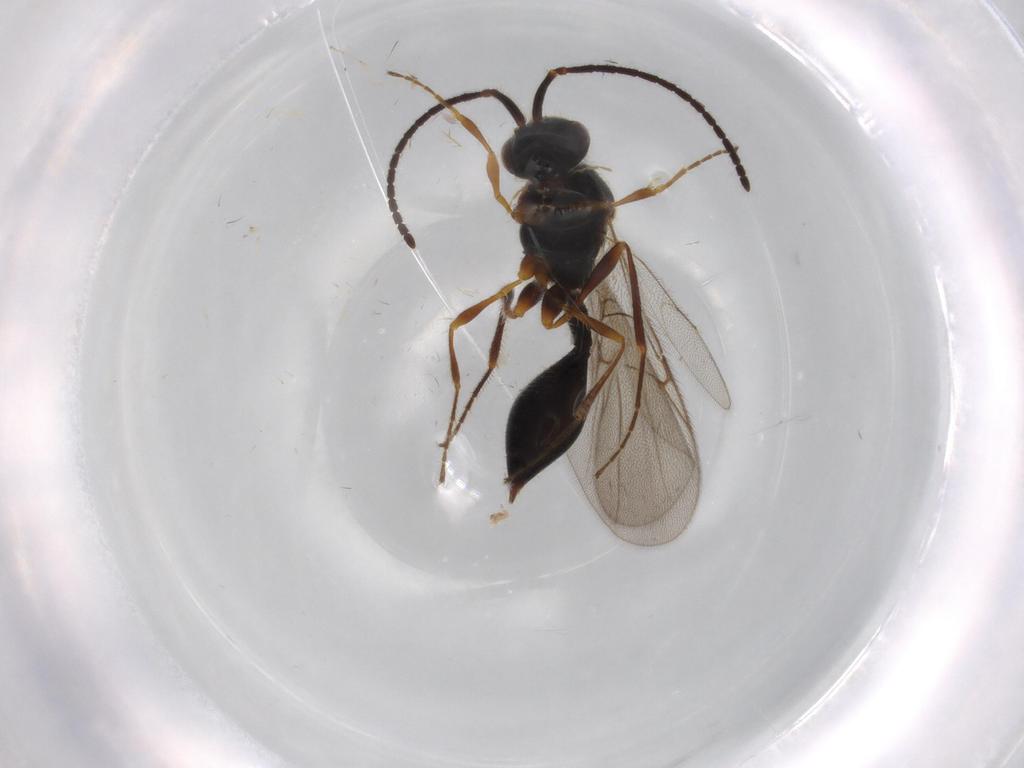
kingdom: Animalia
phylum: Arthropoda
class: Insecta
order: Hymenoptera
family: Diapriidae
